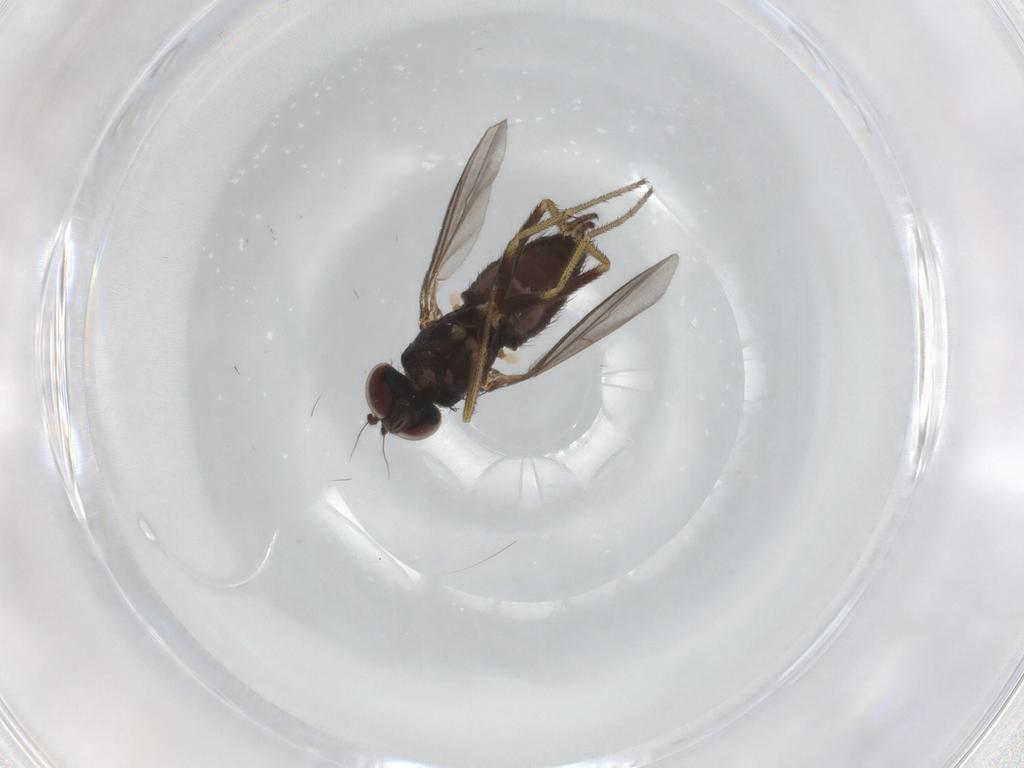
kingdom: Animalia
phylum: Arthropoda
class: Insecta
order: Diptera
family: Dolichopodidae
